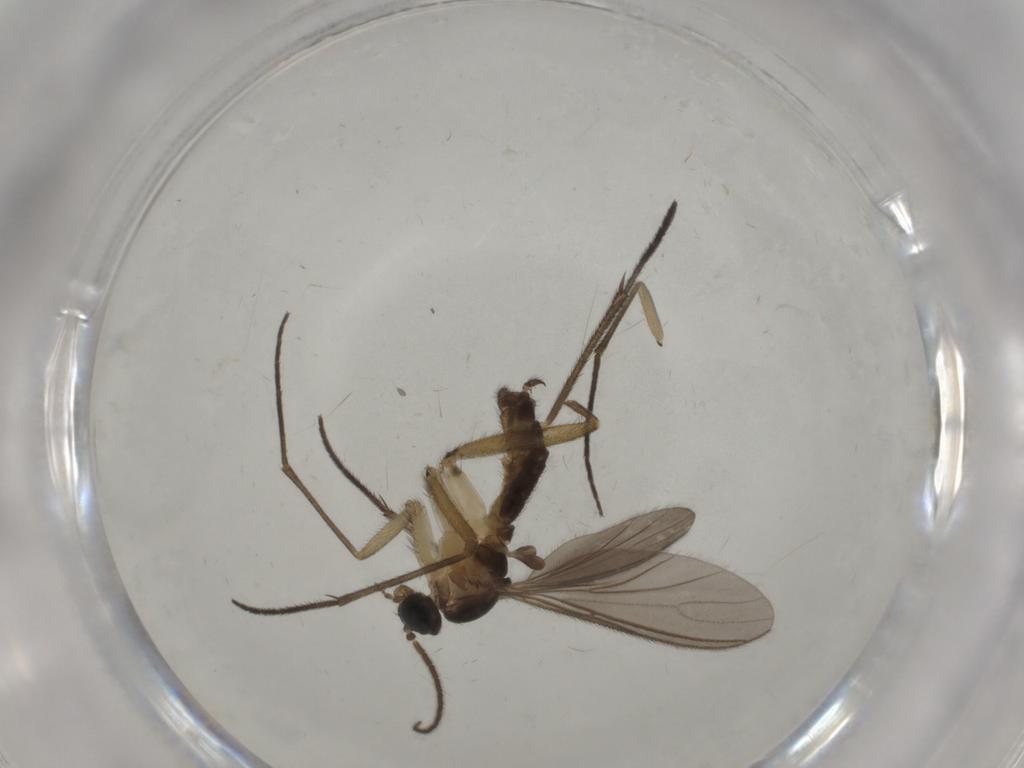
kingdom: Animalia
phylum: Arthropoda
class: Insecta
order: Diptera
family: Sciaridae
